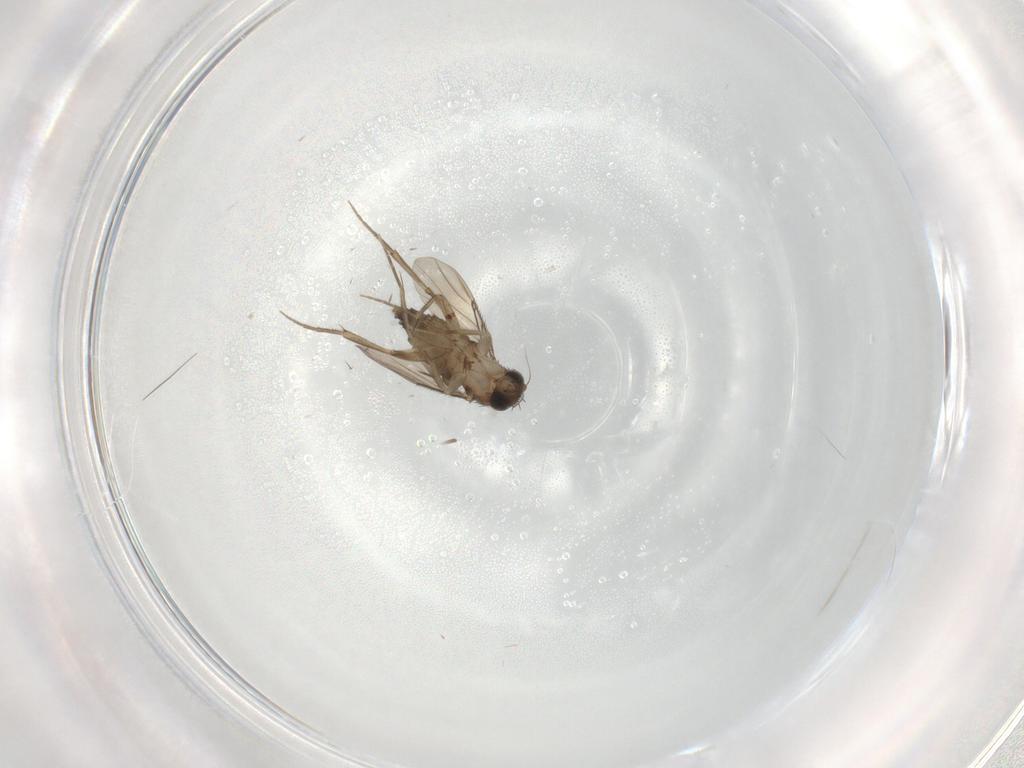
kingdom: Animalia
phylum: Arthropoda
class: Insecta
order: Diptera
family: Phoridae
